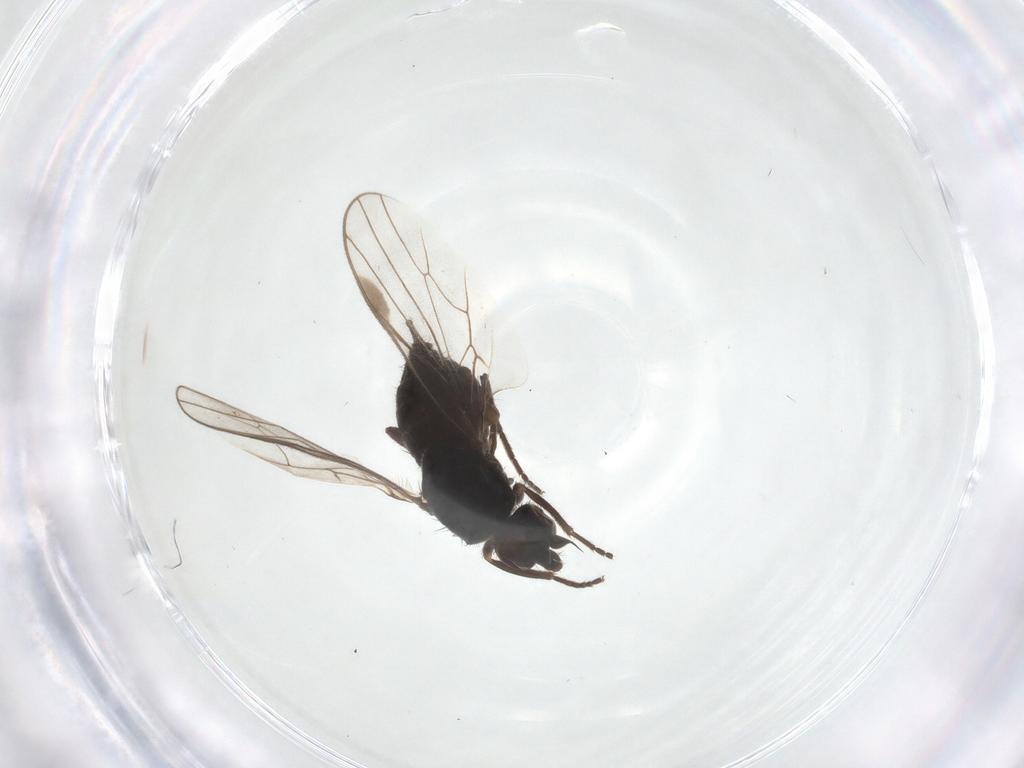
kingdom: Animalia
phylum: Arthropoda
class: Insecta
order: Diptera
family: Hybotidae
